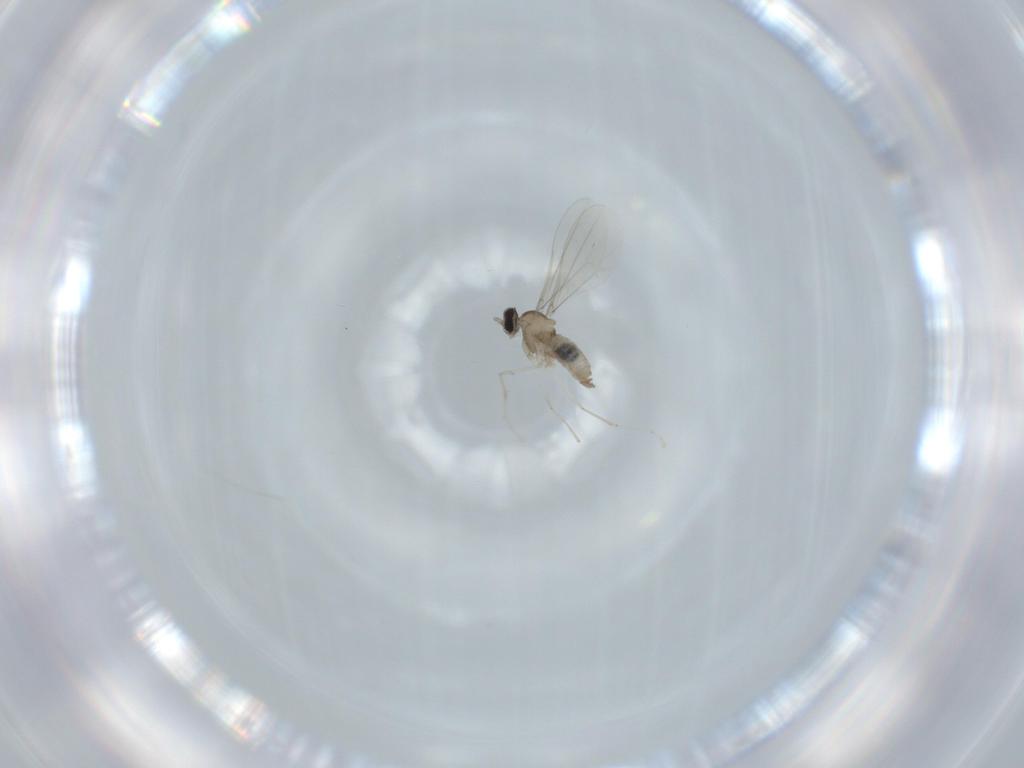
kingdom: Animalia
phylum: Arthropoda
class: Insecta
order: Diptera
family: Cecidomyiidae
